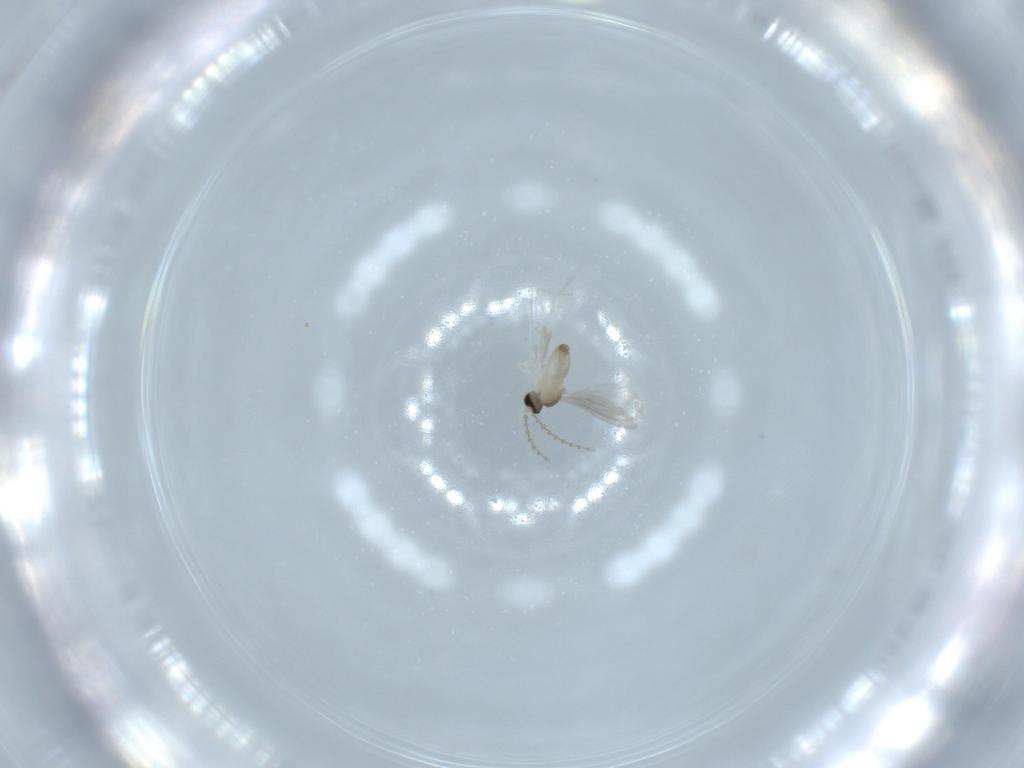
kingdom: Animalia
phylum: Arthropoda
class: Insecta
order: Diptera
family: Cecidomyiidae
